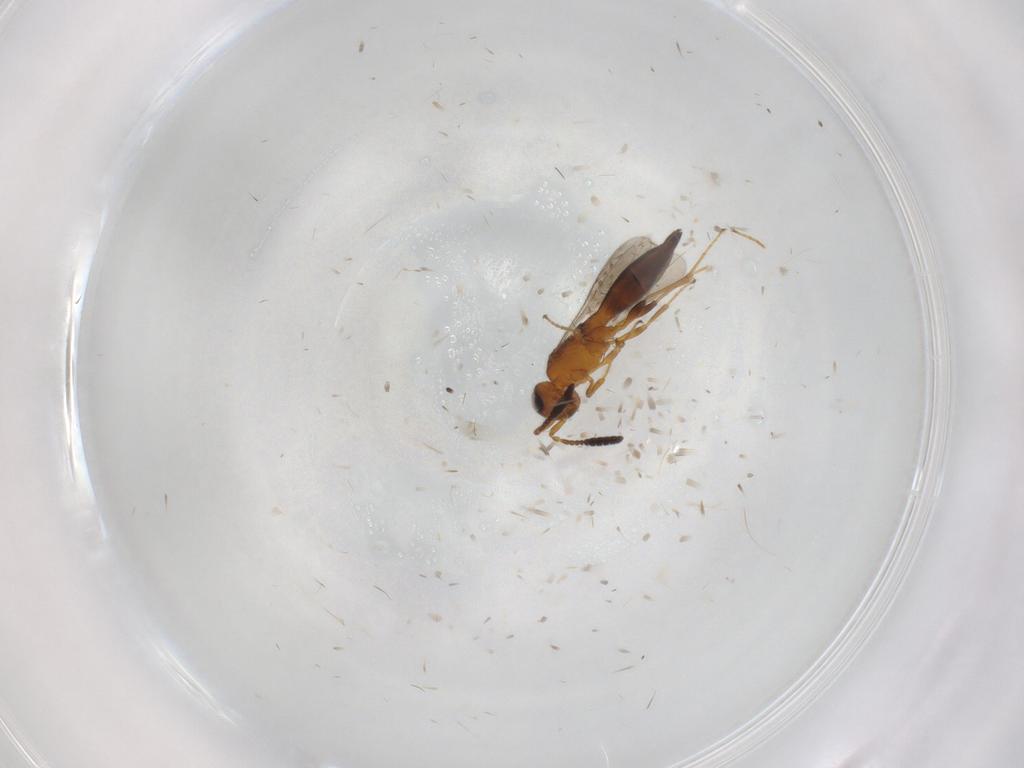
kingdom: Animalia
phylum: Arthropoda
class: Insecta
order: Hymenoptera
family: Scelionidae
